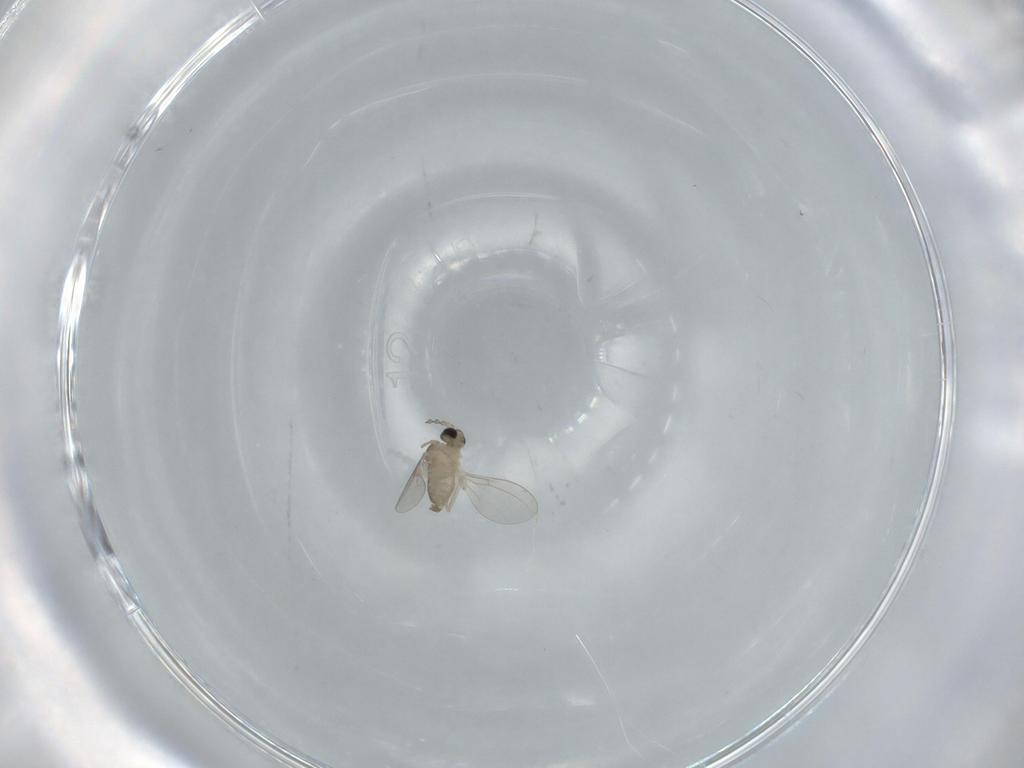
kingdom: Animalia
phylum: Arthropoda
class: Insecta
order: Diptera
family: Cecidomyiidae
